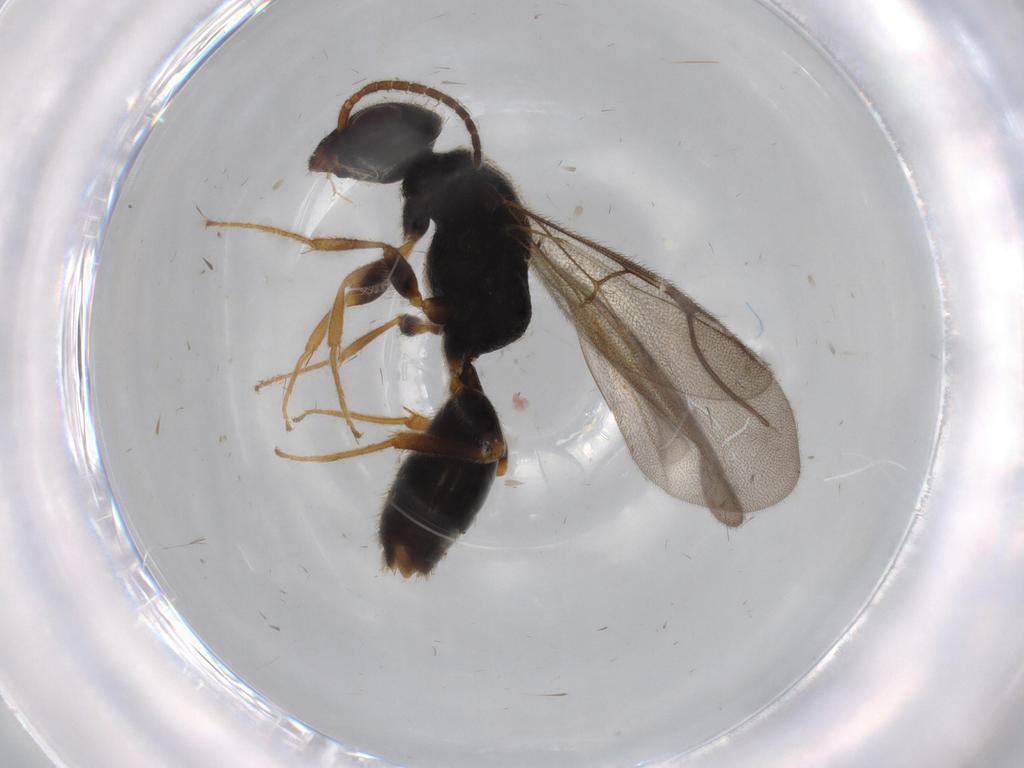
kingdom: Animalia
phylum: Arthropoda
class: Insecta
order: Hymenoptera
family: Bethylidae
